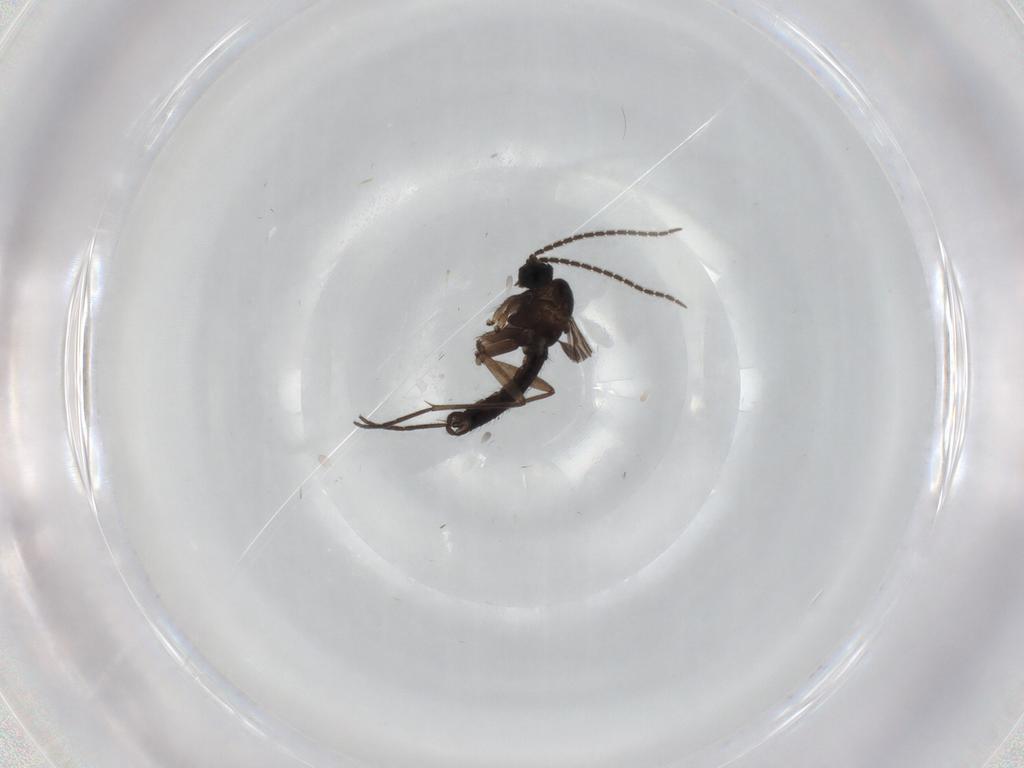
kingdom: Animalia
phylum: Arthropoda
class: Insecta
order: Diptera
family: Sciaridae
